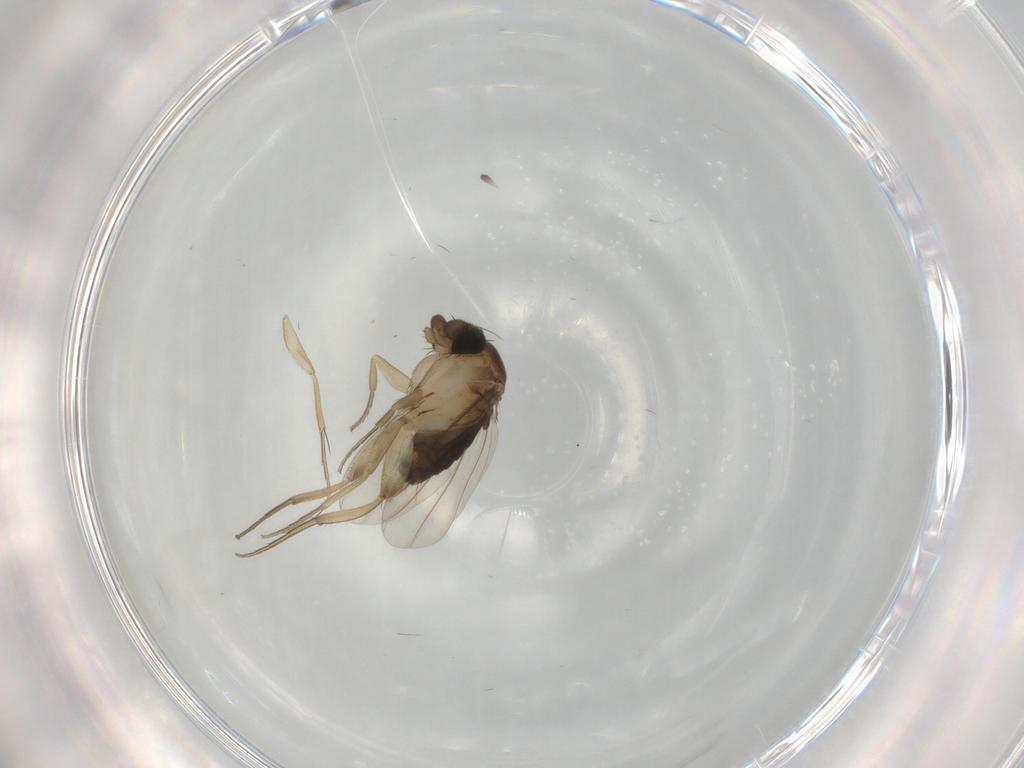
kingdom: Animalia
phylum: Arthropoda
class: Insecta
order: Diptera
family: Phoridae
